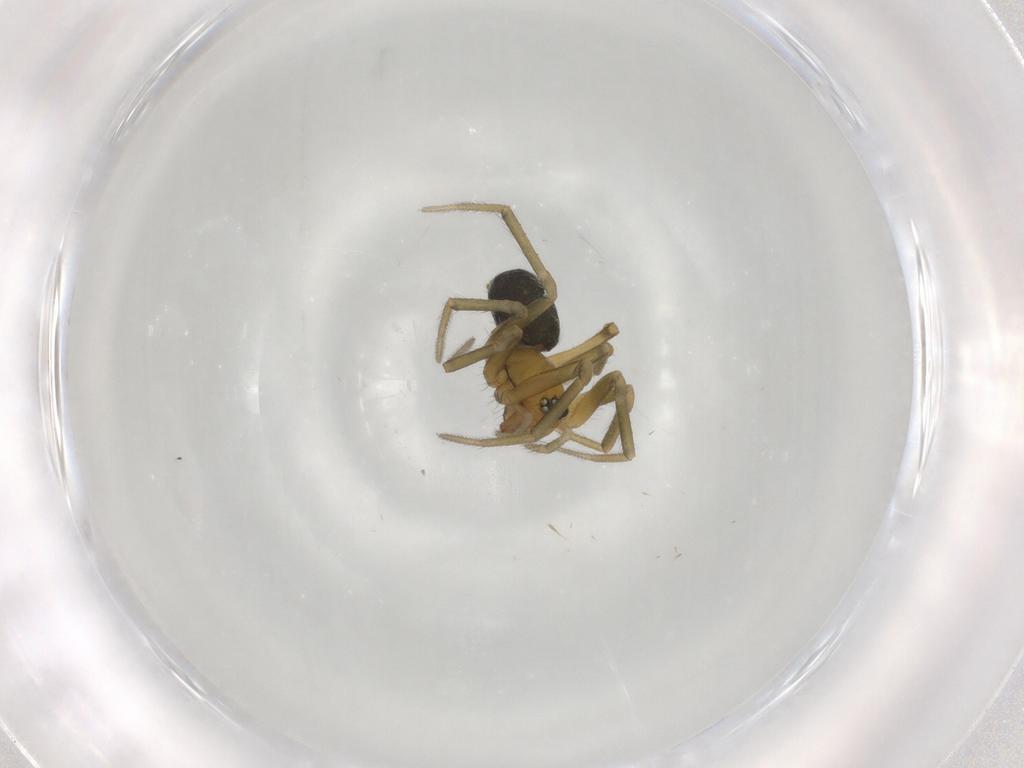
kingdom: Animalia
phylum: Arthropoda
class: Arachnida
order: Araneae
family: Linyphiidae
